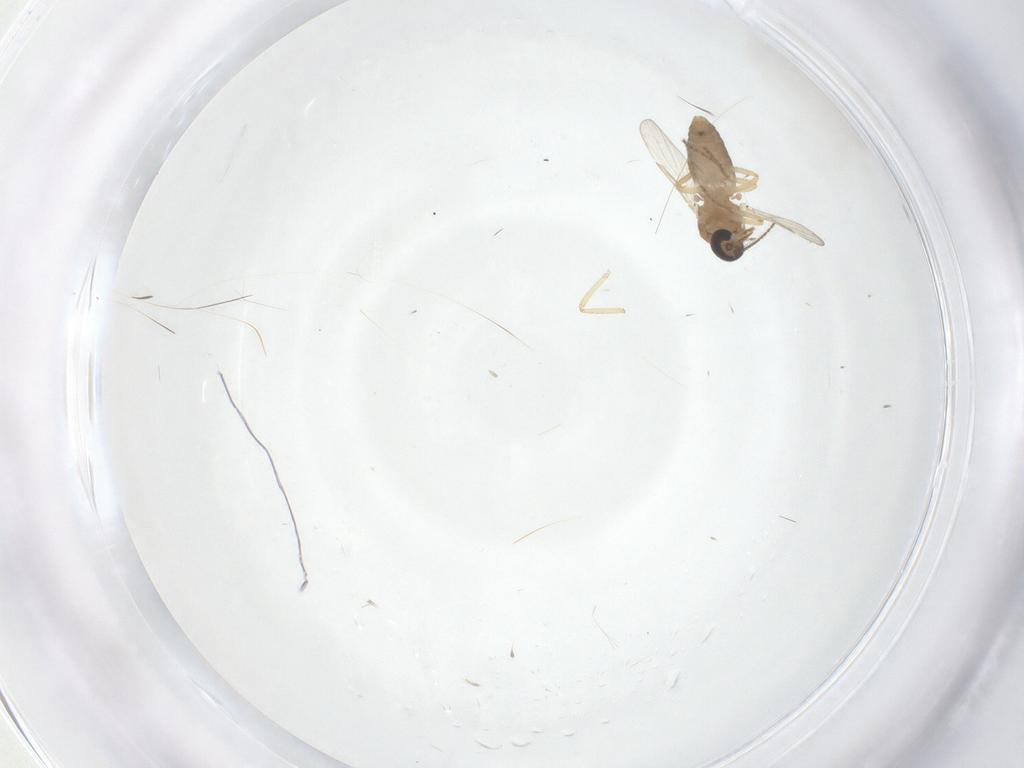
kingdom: Animalia
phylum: Arthropoda
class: Insecta
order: Diptera
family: Ceratopogonidae
